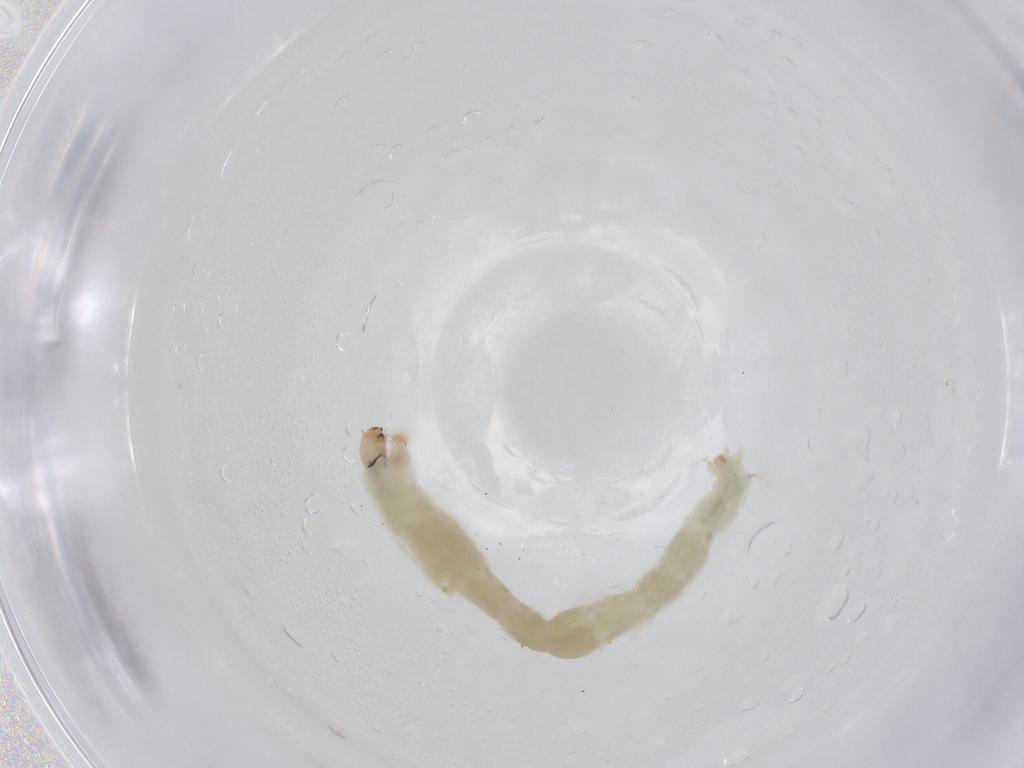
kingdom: Animalia
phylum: Arthropoda
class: Insecta
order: Diptera
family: Chironomidae
